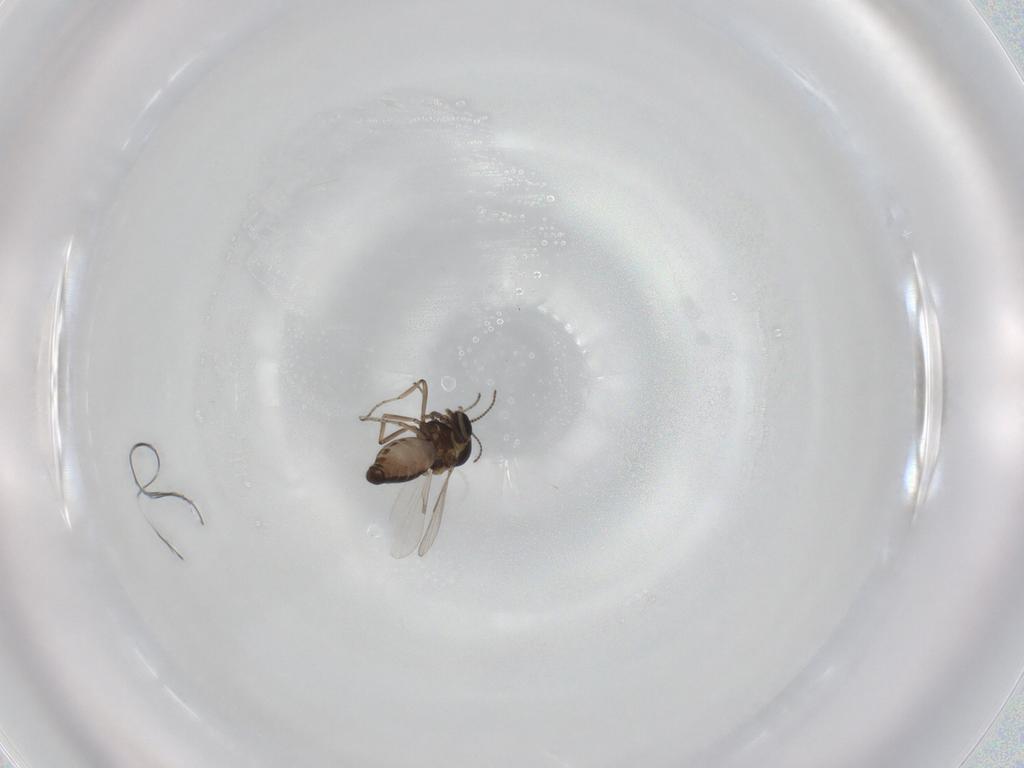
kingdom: Animalia
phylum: Arthropoda
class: Insecta
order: Diptera
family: Ceratopogonidae
